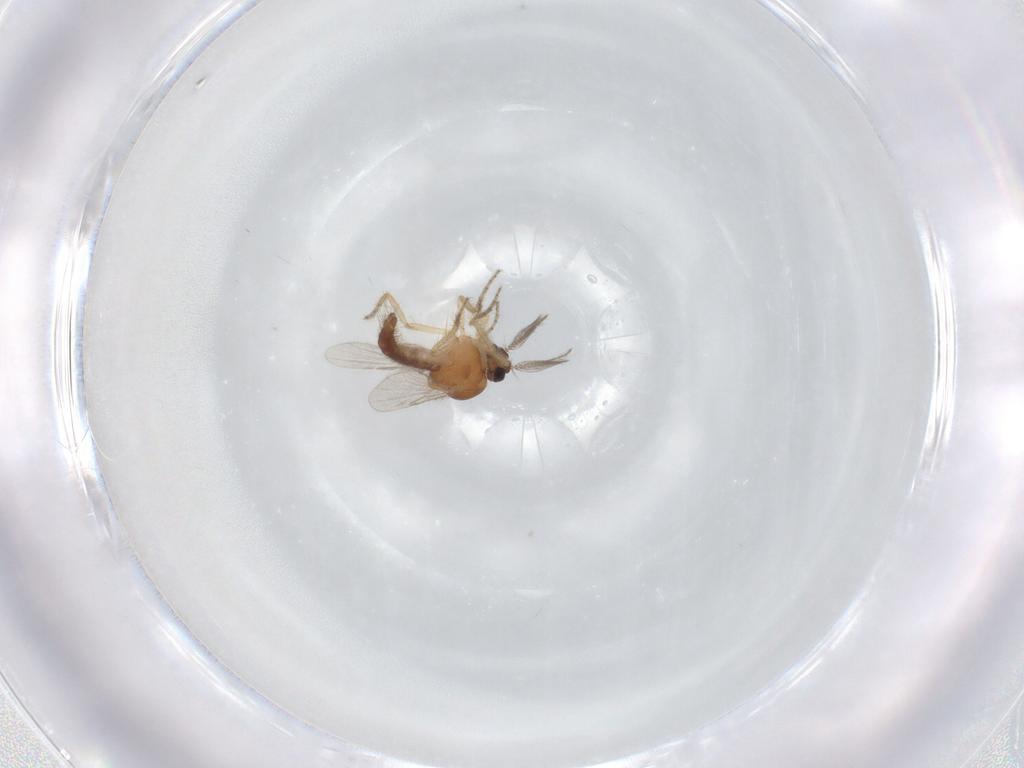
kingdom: Animalia
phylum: Arthropoda
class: Insecta
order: Diptera
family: Ceratopogonidae
